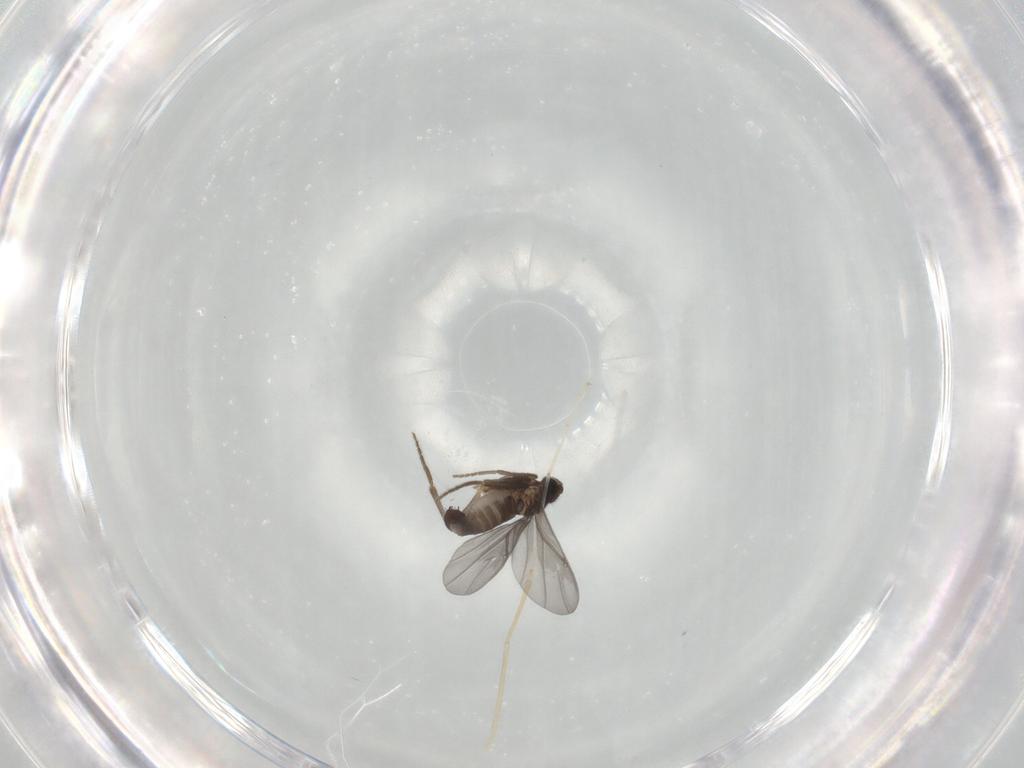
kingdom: Animalia
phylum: Arthropoda
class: Insecta
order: Diptera
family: Phoridae
